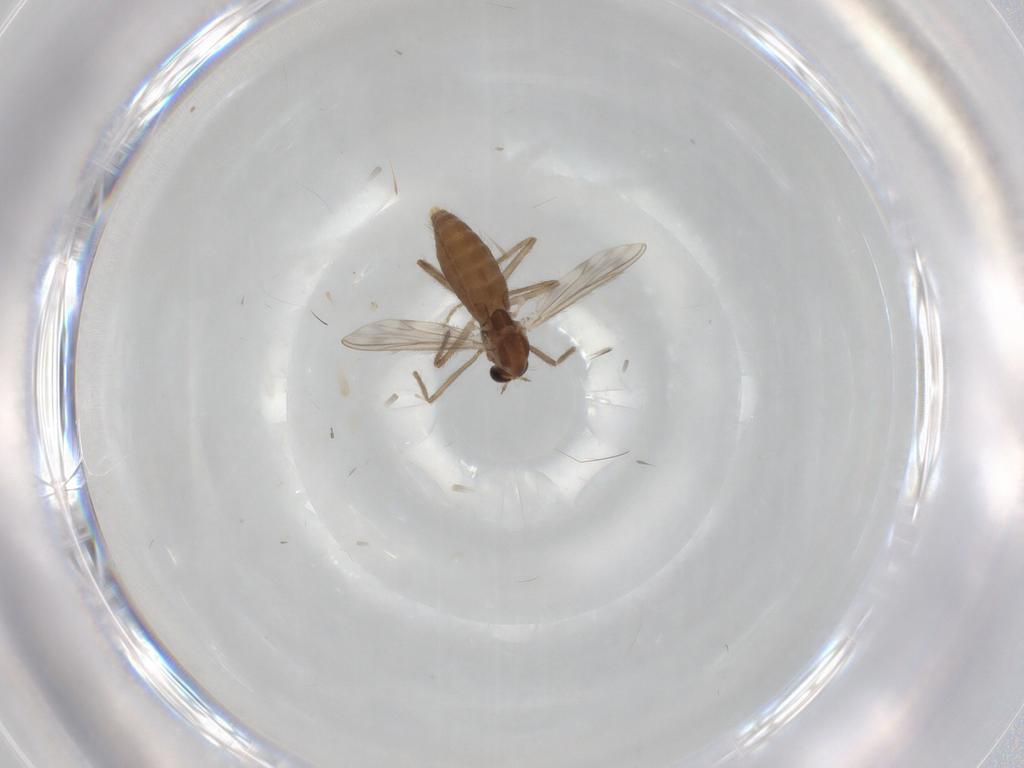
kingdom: Animalia
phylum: Arthropoda
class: Insecta
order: Diptera
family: Chironomidae
